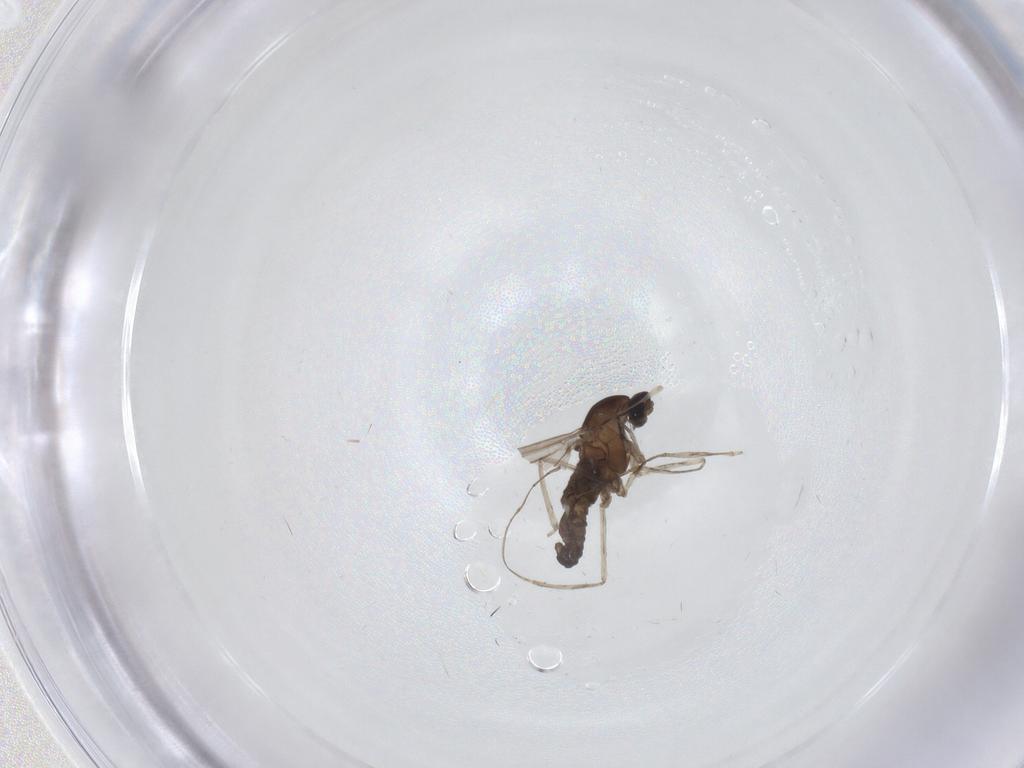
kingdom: Animalia
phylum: Arthropoda
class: Insecta
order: Diptera
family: Cecidomyiidae
